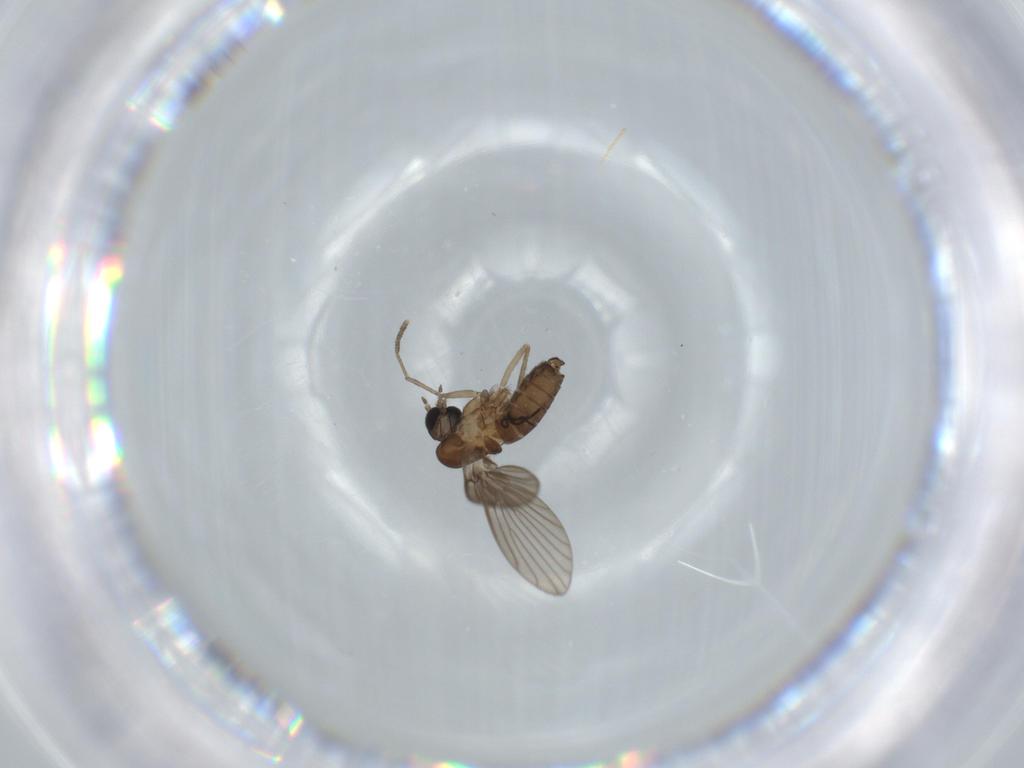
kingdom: Animalia
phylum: Arthropoda
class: Insecta
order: Diptera
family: Psychodidae
